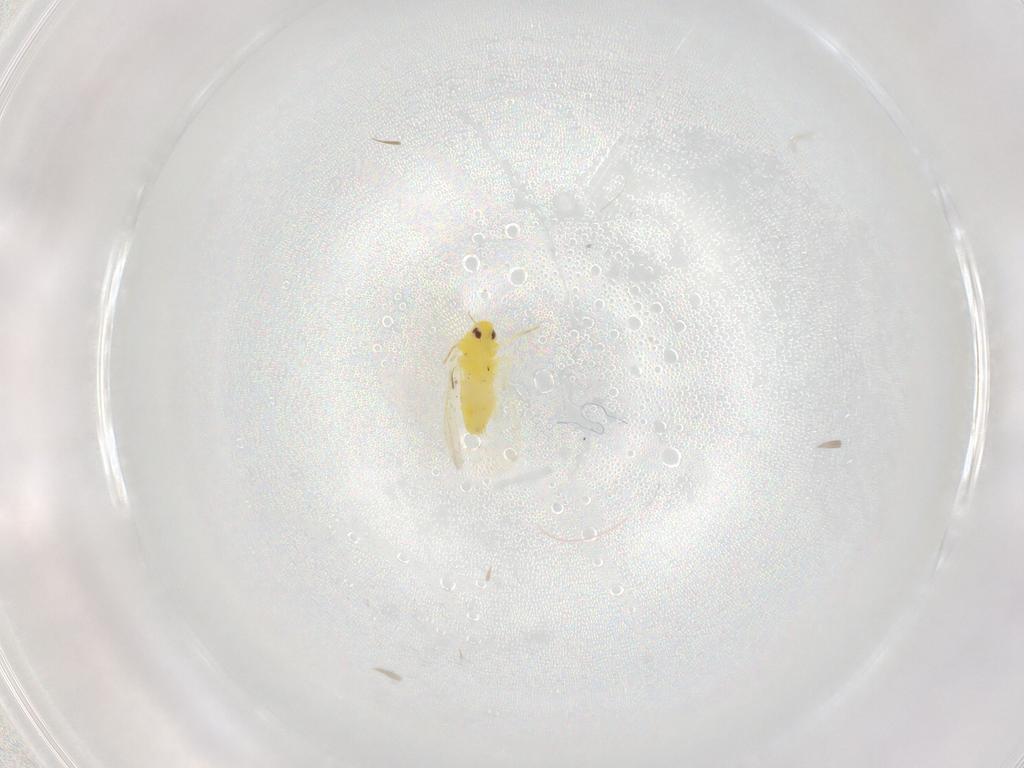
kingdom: Animalia
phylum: Arthropoda
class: Insecta
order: Hemiptera
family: Aleyrodidae
